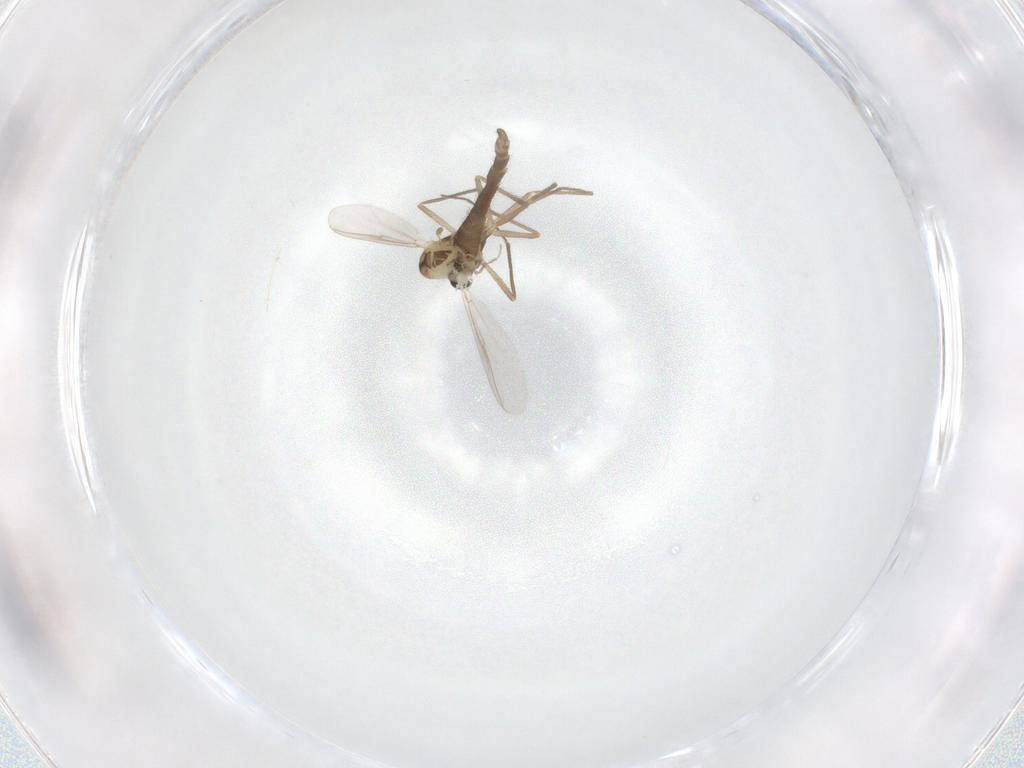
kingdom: Animalia
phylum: Arthropoda
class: Insecta
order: Diptera
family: Chironomidae
